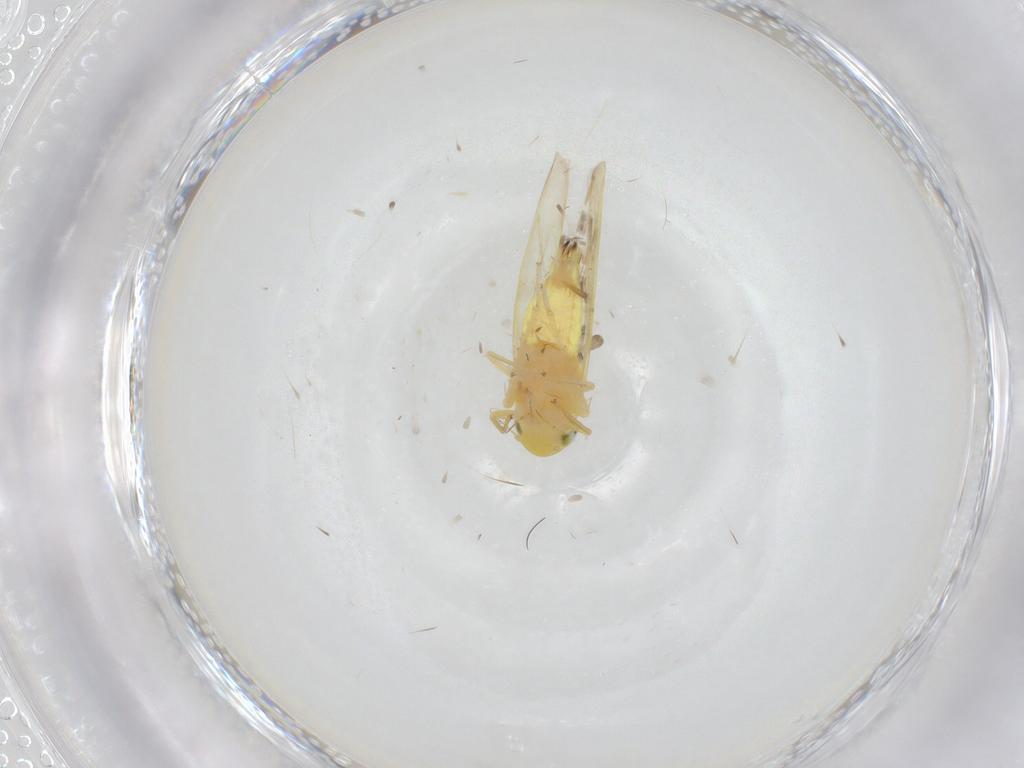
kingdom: Animalia
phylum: Arthropoda
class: Insecta
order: Hemiptera
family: Cicadellidae
